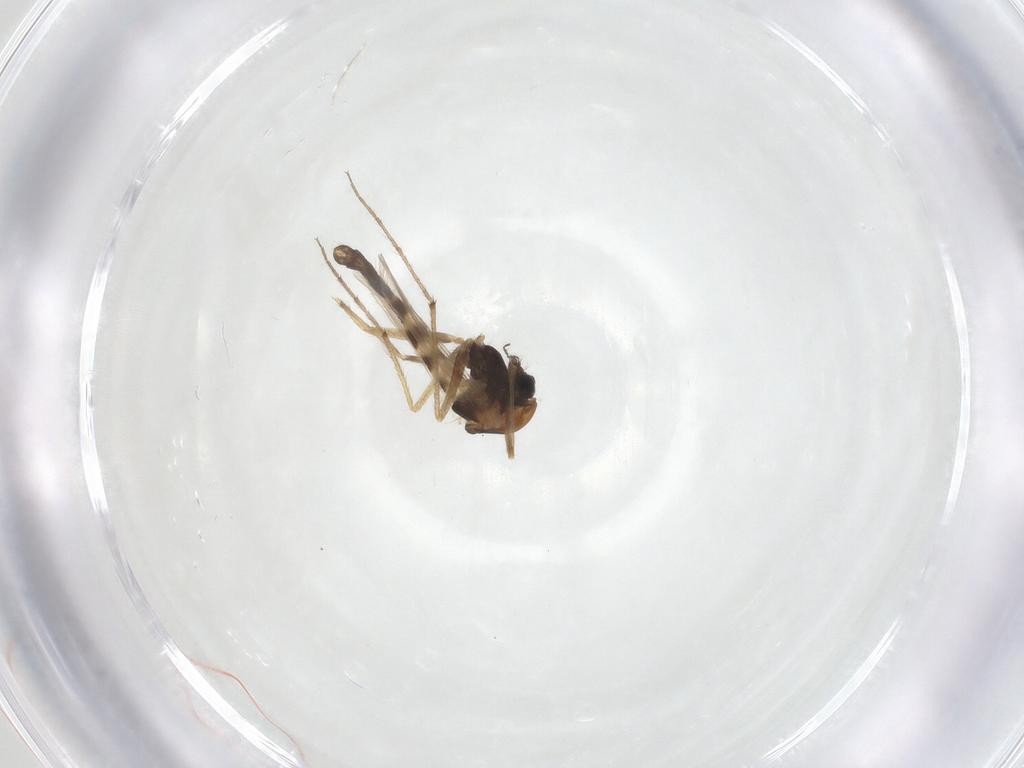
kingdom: Animalia
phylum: Arthropoda
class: Insecta
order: Diptera
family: Chironomidae
